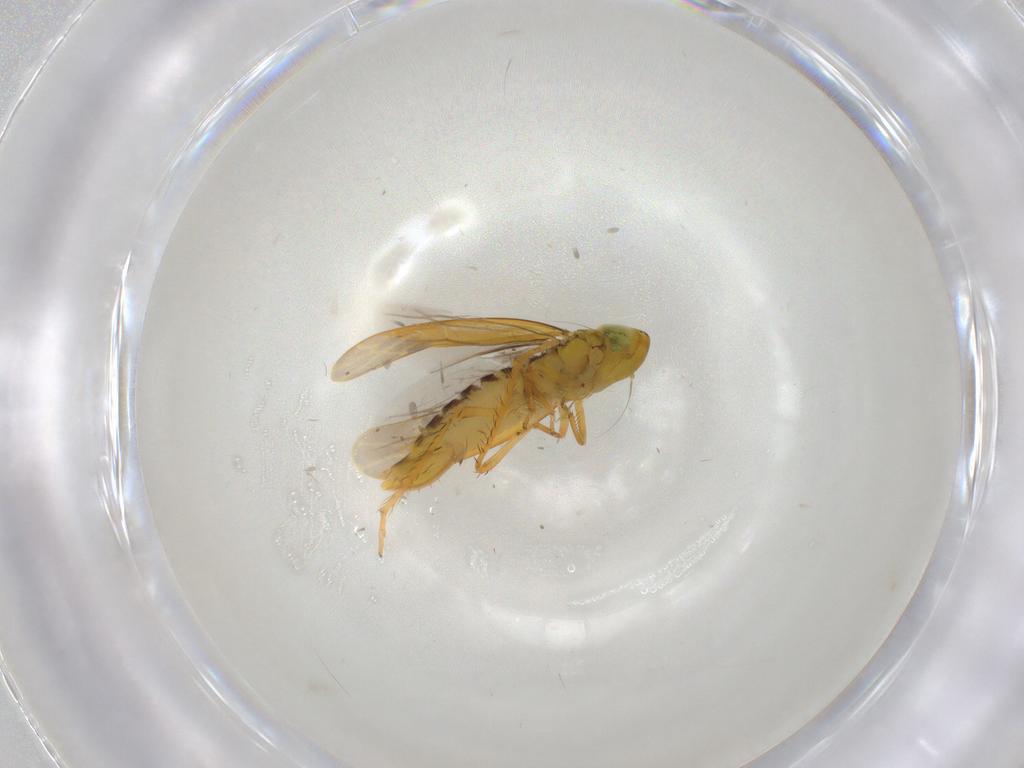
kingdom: Animalia
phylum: Arthropoda
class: Insecta
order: Hemiptera
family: Cicadellidae
